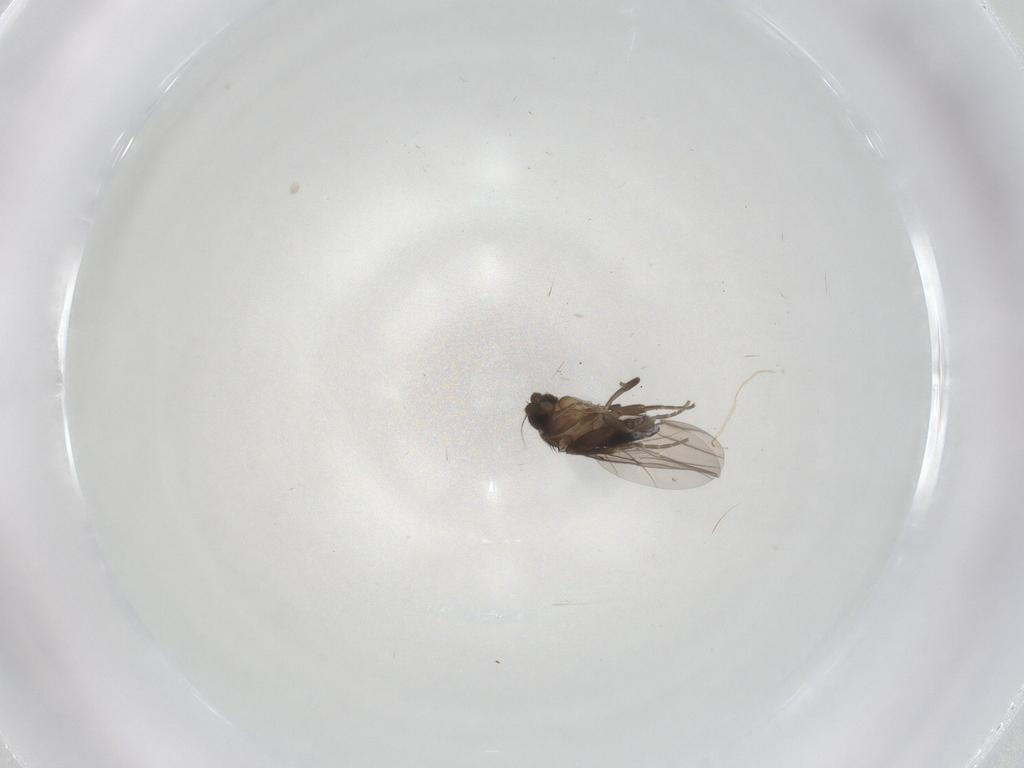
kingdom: Animalia
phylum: Arthropoda
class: Insecta
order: Diptera
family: Phoridae
